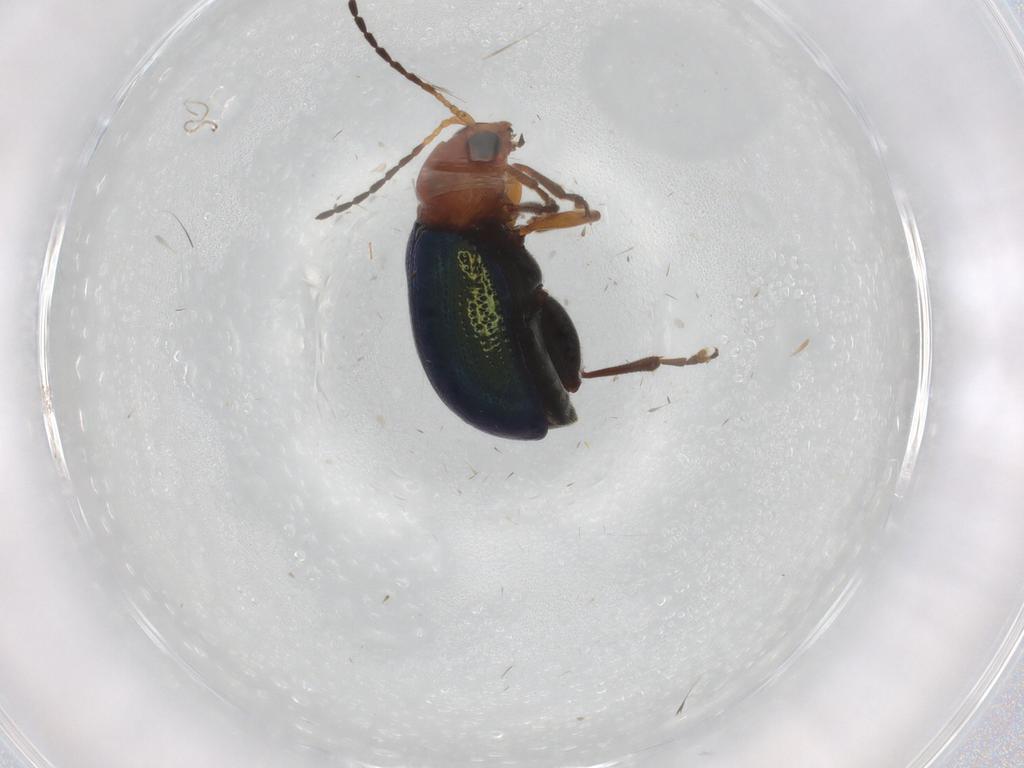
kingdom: Animalia
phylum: Arthropoda
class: Insecta
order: Coleoptera
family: Chrysomelidae
